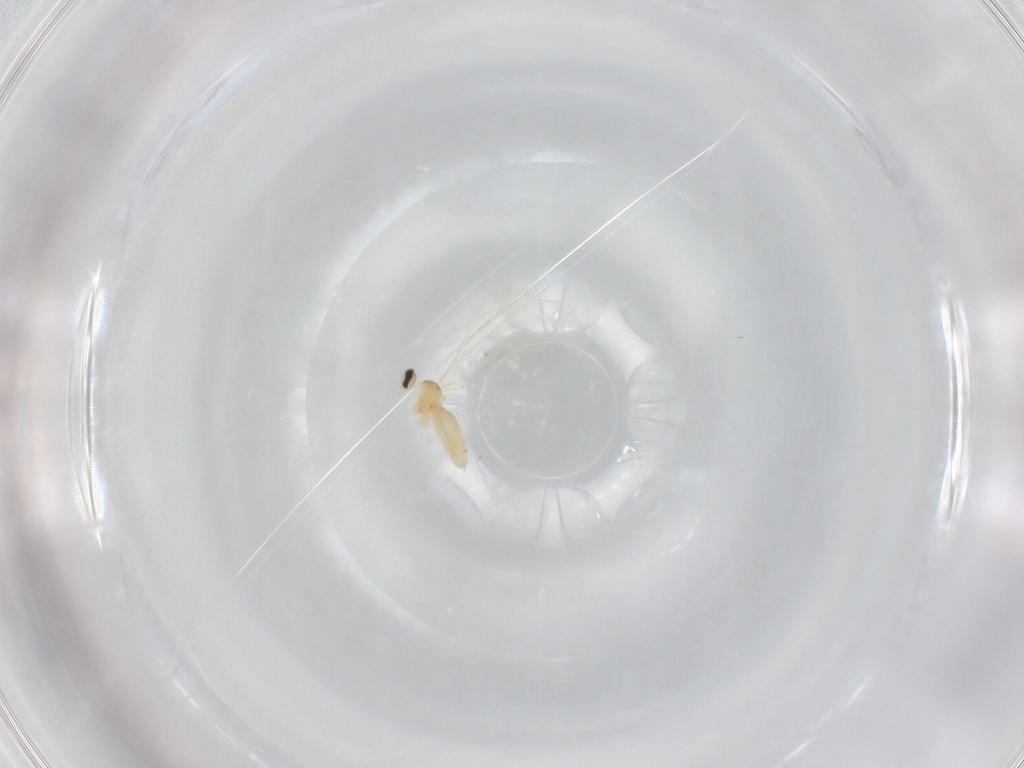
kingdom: Animalia
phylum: Arthropoda
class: Insecta
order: Diptera
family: Cecidomyiidae
